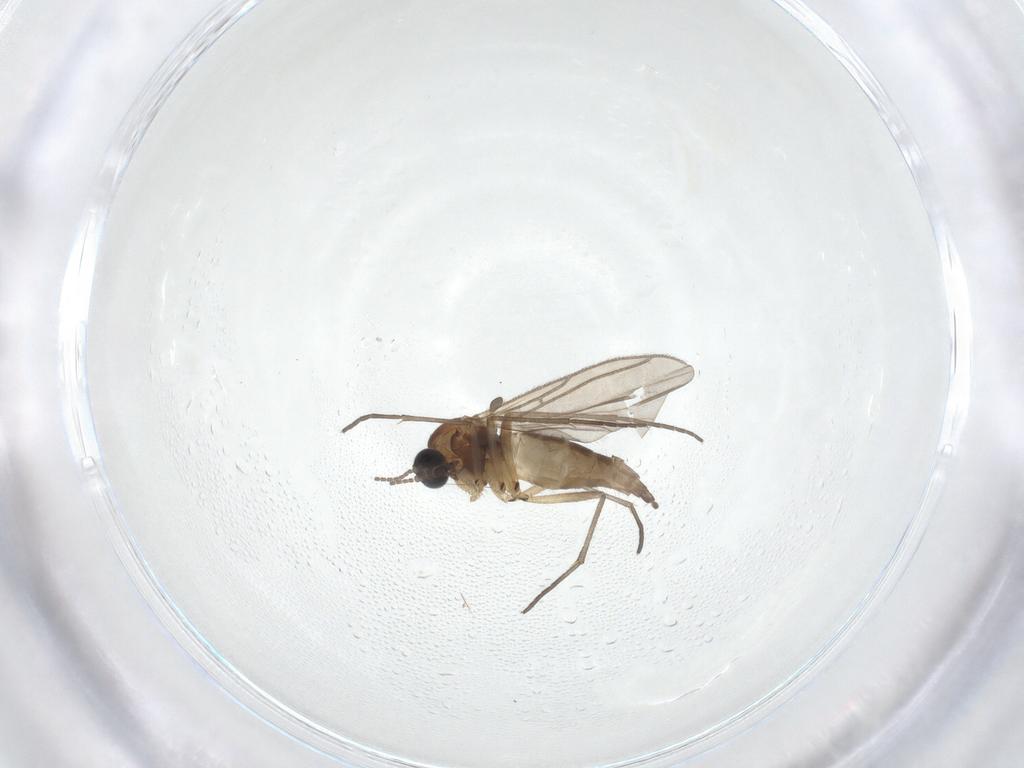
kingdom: Animalia
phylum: Arthropoda
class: Insecta
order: Diptera
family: Sciaridae
